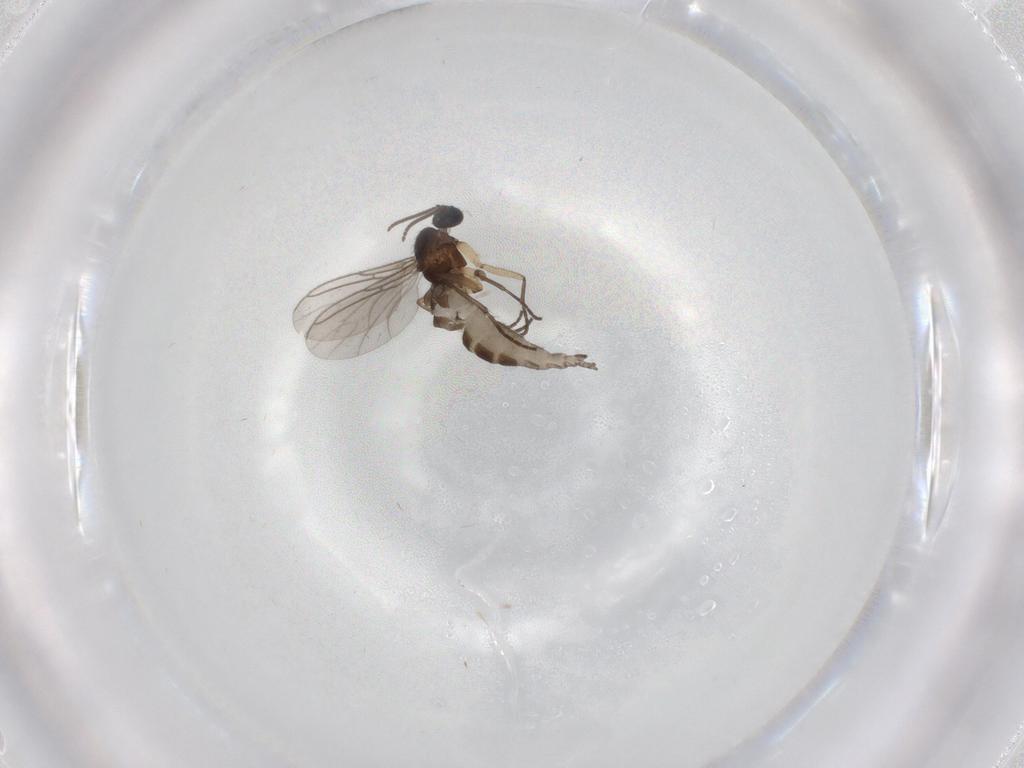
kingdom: Animalia
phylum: Arthropoda
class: Insecta
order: Diptera
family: Sciaridae
